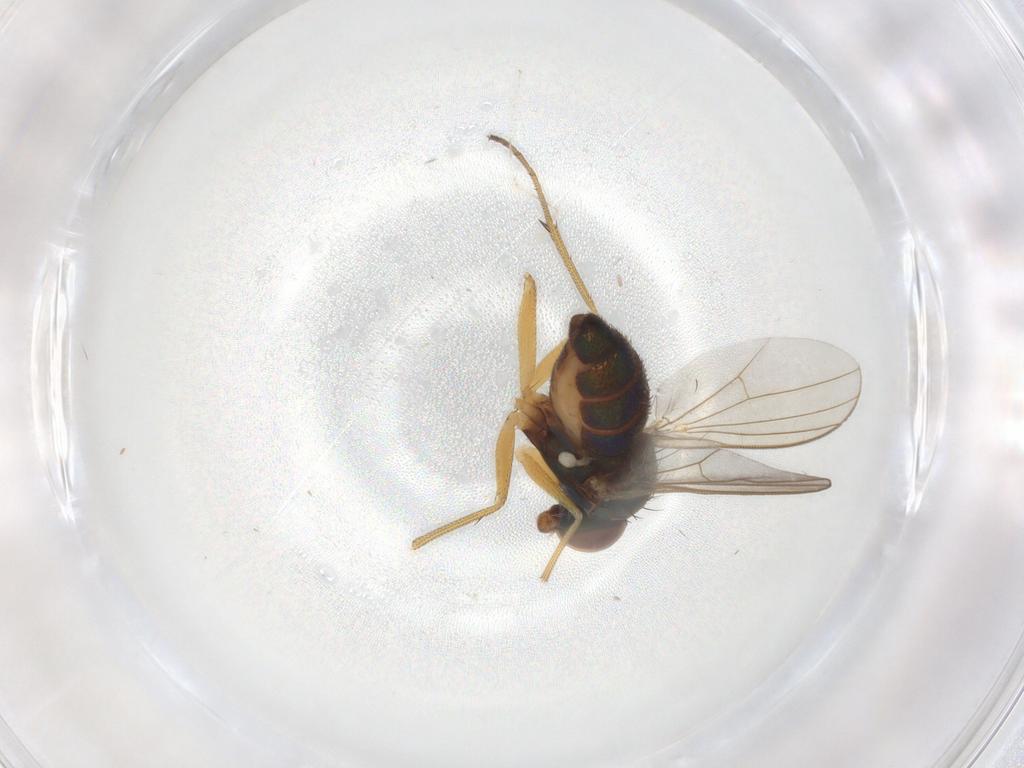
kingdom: Animalia
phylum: Arthropoda
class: Insecta
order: Diptera
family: Dolichopodidae
